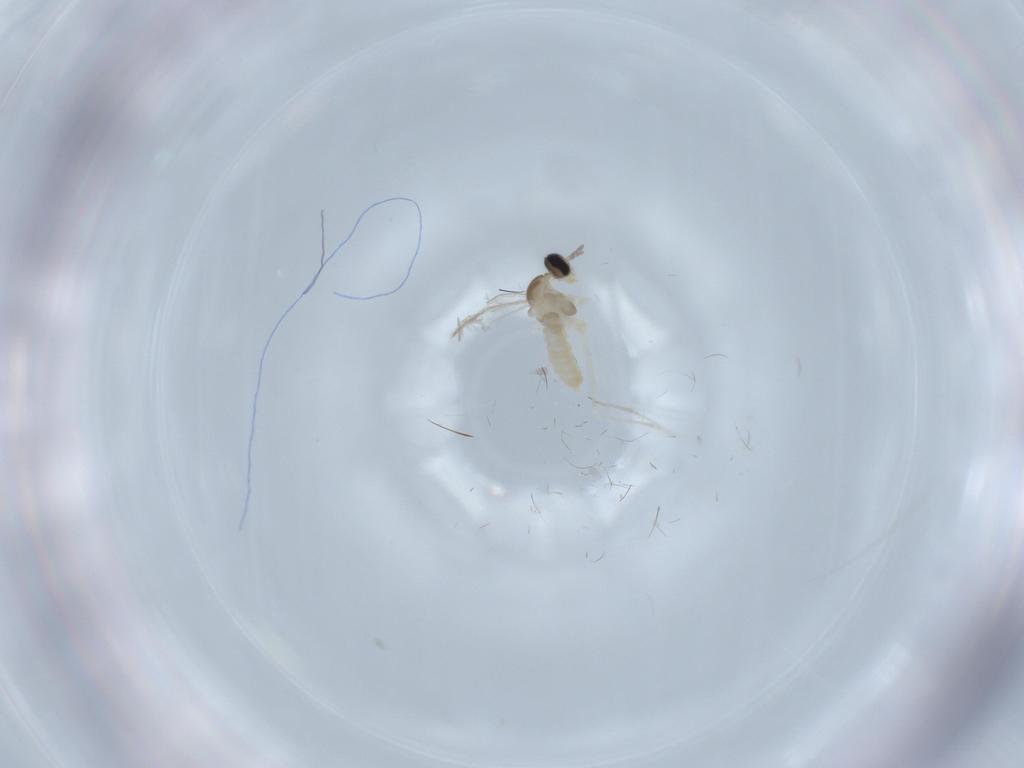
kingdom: Animalia
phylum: Arthropoda
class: Insecta
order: Diptera
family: Cecidomyiidae
